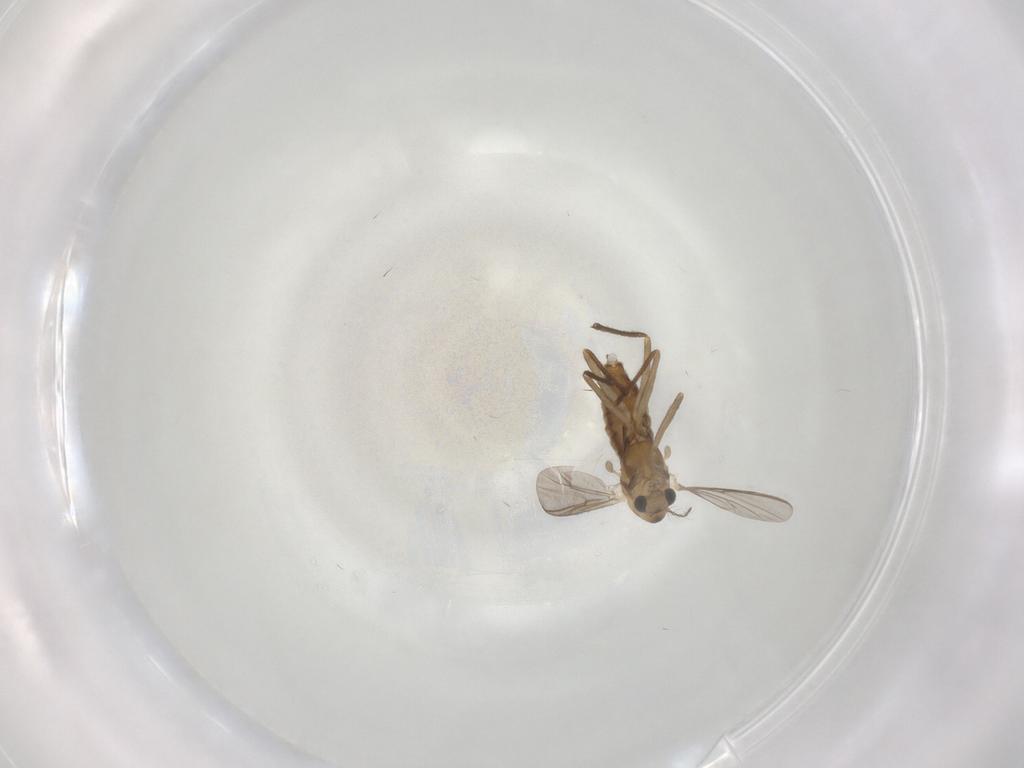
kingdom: Animalia
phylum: Arthropoda
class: Insecta
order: Diptera
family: Chironomidae
